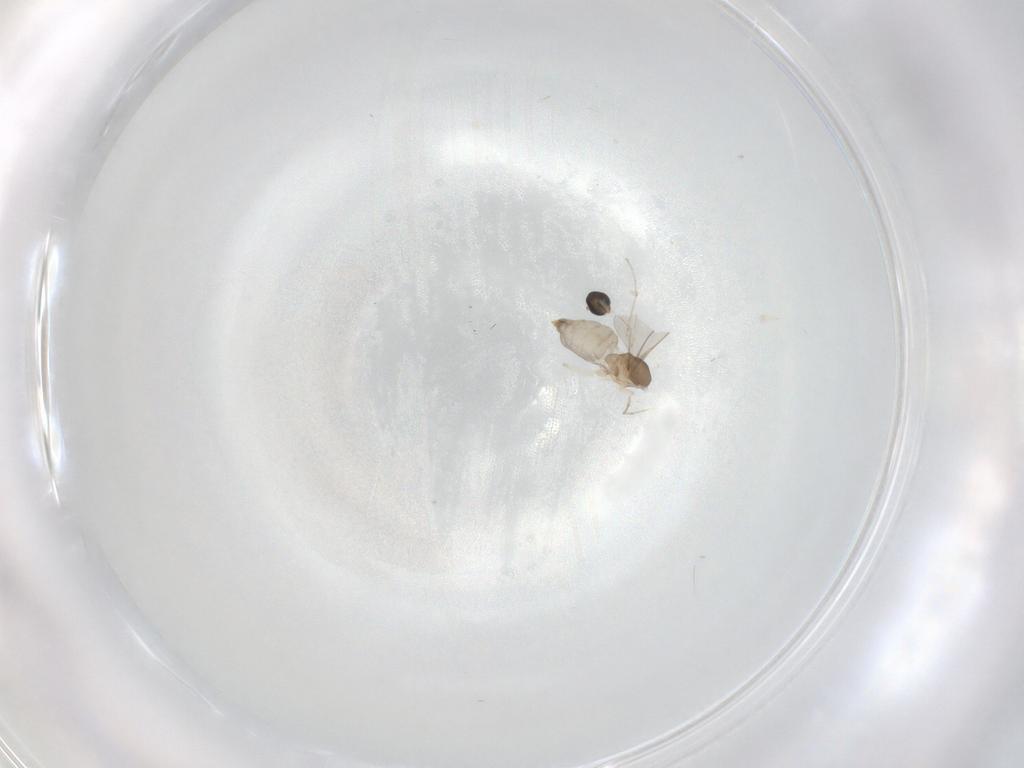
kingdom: Animalia
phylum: Arthropoda
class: Insecta
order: Diptera
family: Cecidomyiidae
